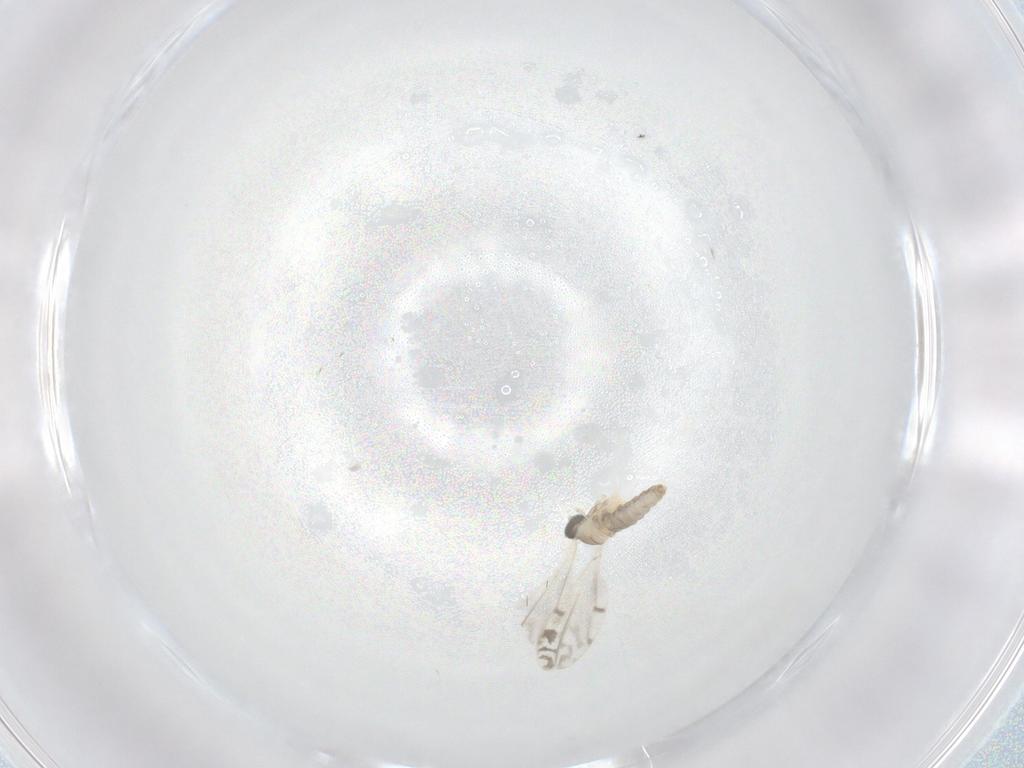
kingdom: Animalia
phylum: Arthropoda
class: Insecta
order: Diptera
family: Cecidomyiidae
